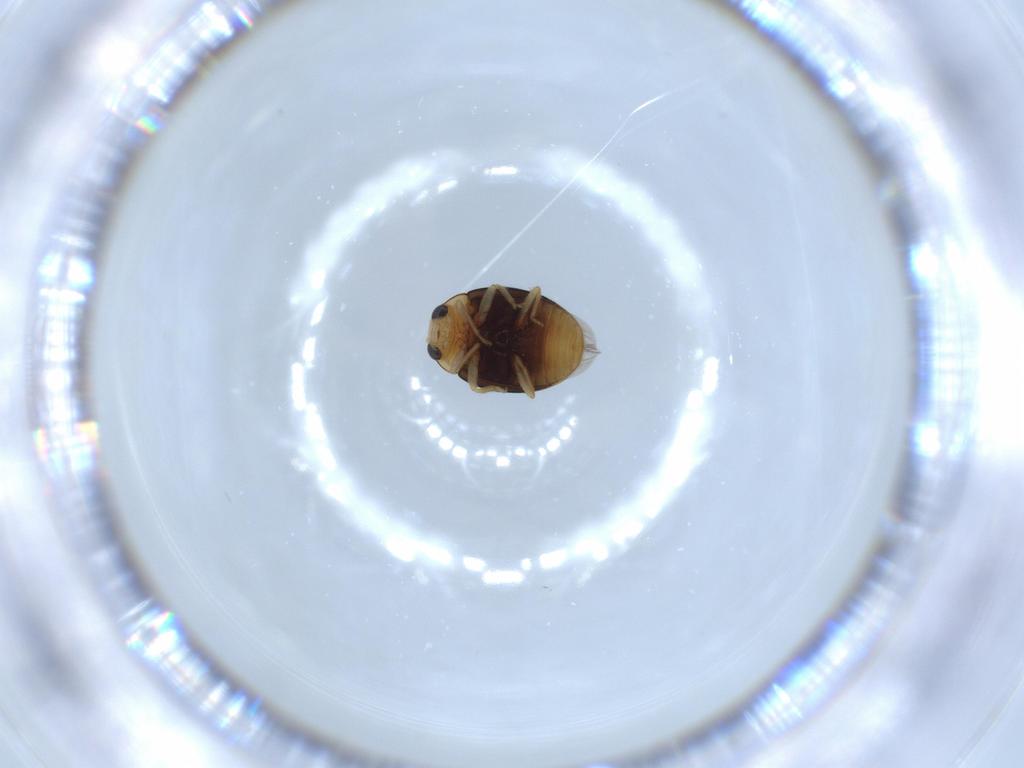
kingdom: Animalia
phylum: Arthropoda
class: Insecta
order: Coleoptera
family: Coccinellidae
